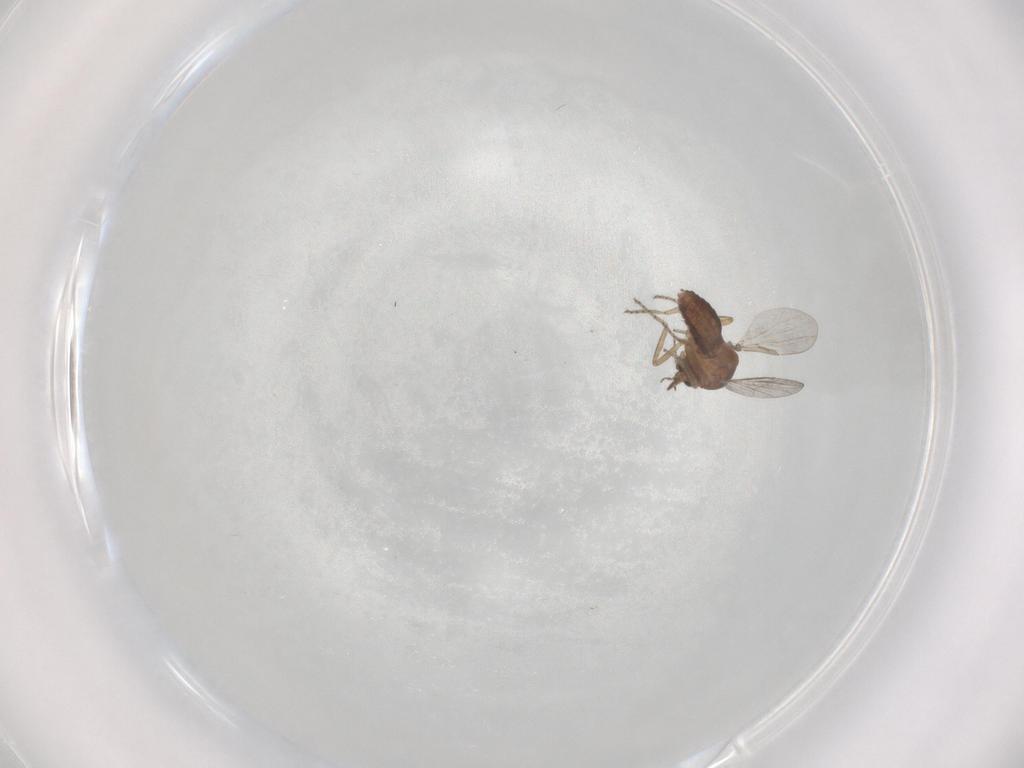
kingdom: Animalia
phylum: Arthropoda
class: Insecta
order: Diptera
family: Ceratopogonidae
